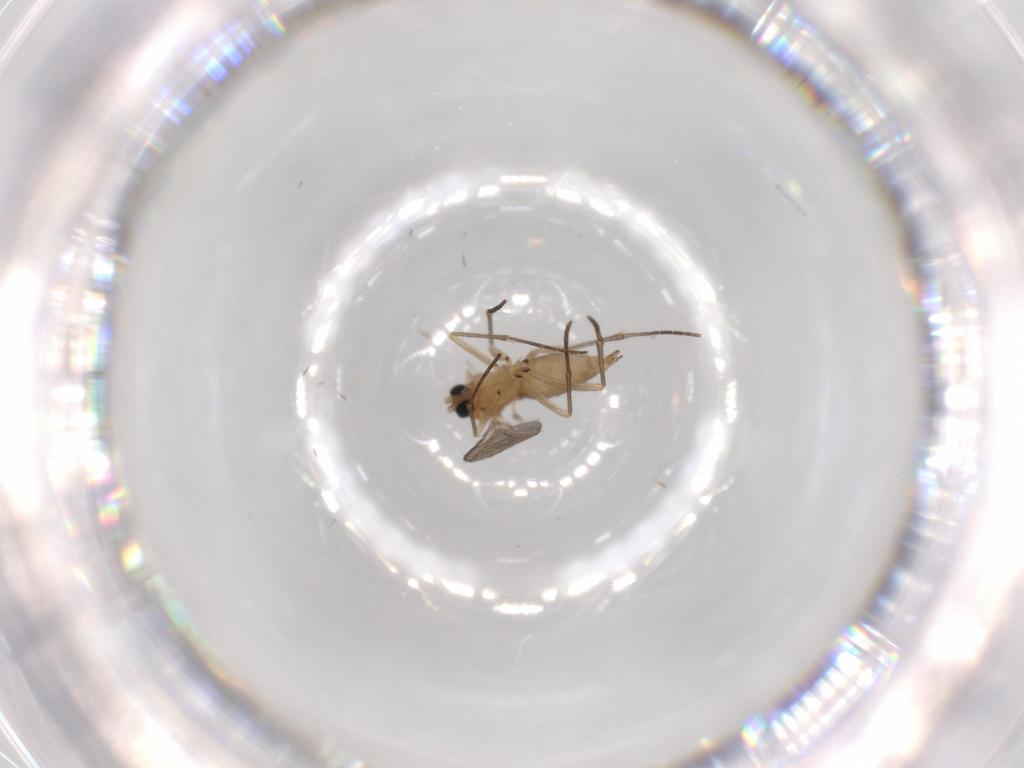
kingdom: Animalia
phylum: Arthropoda
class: Insecta
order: Diptera
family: Sciaridae
